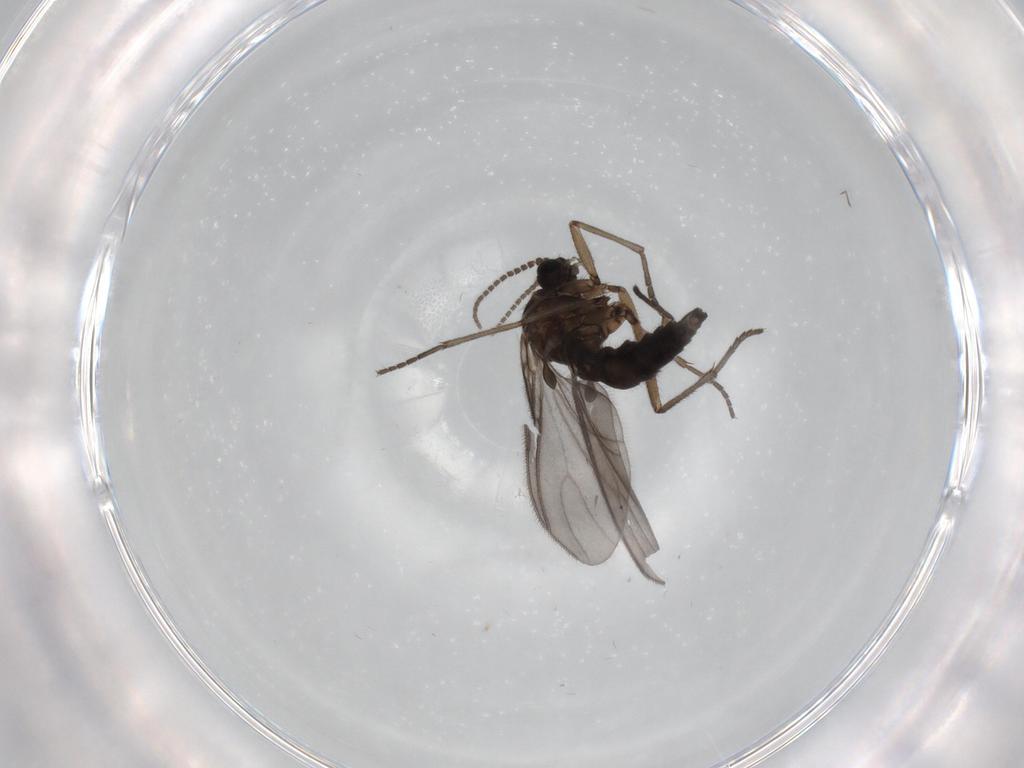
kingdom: Animalia
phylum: Arthropoda
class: Insecta
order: Diptera
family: Sciaridae
